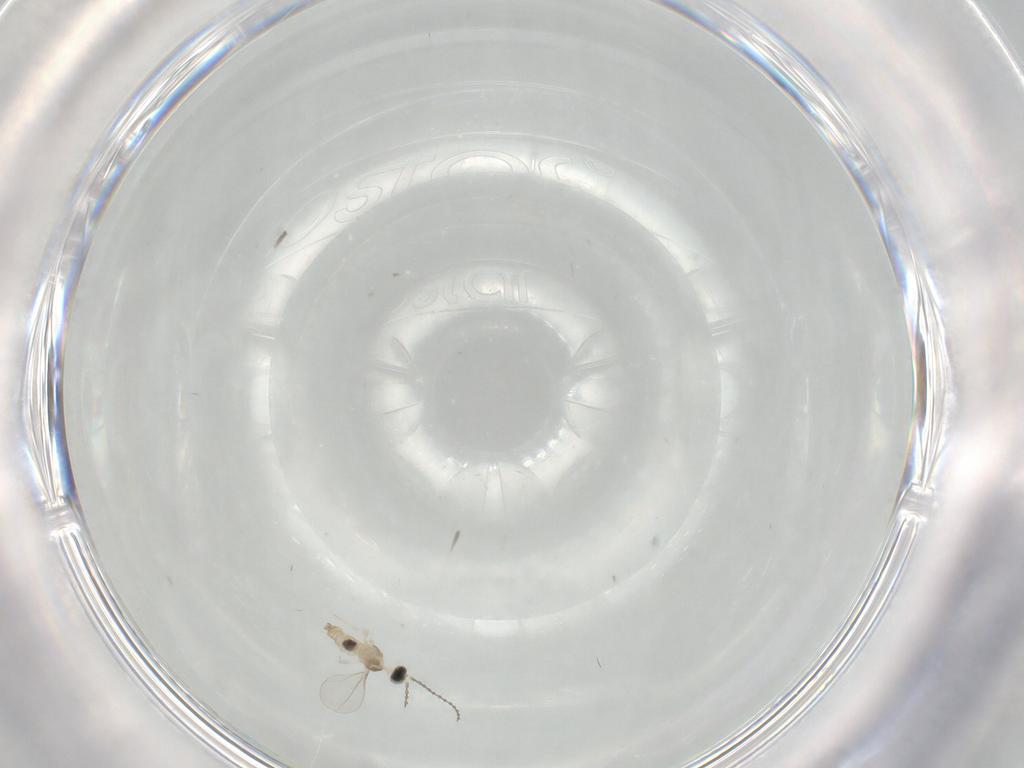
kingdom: Animalia
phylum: Arthropoda
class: Insecta
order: Diptera
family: Cecidomyiidae
